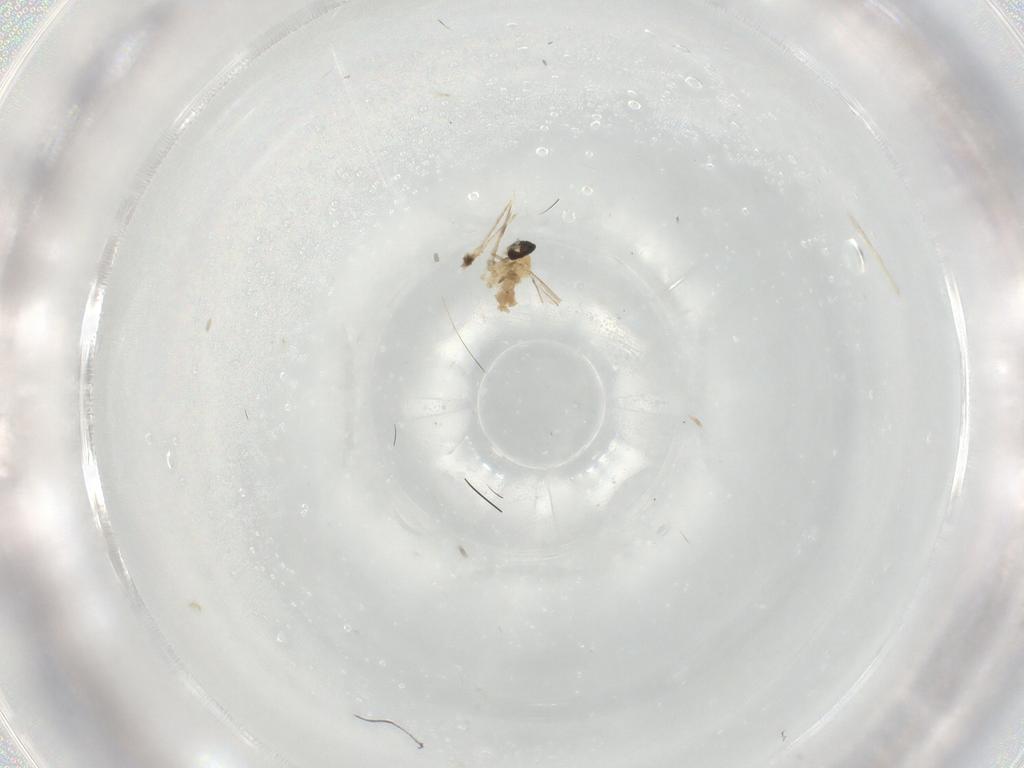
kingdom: Animalia
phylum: Arthropoda
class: Insecta
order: Diptera
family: Cecidomyiidae
